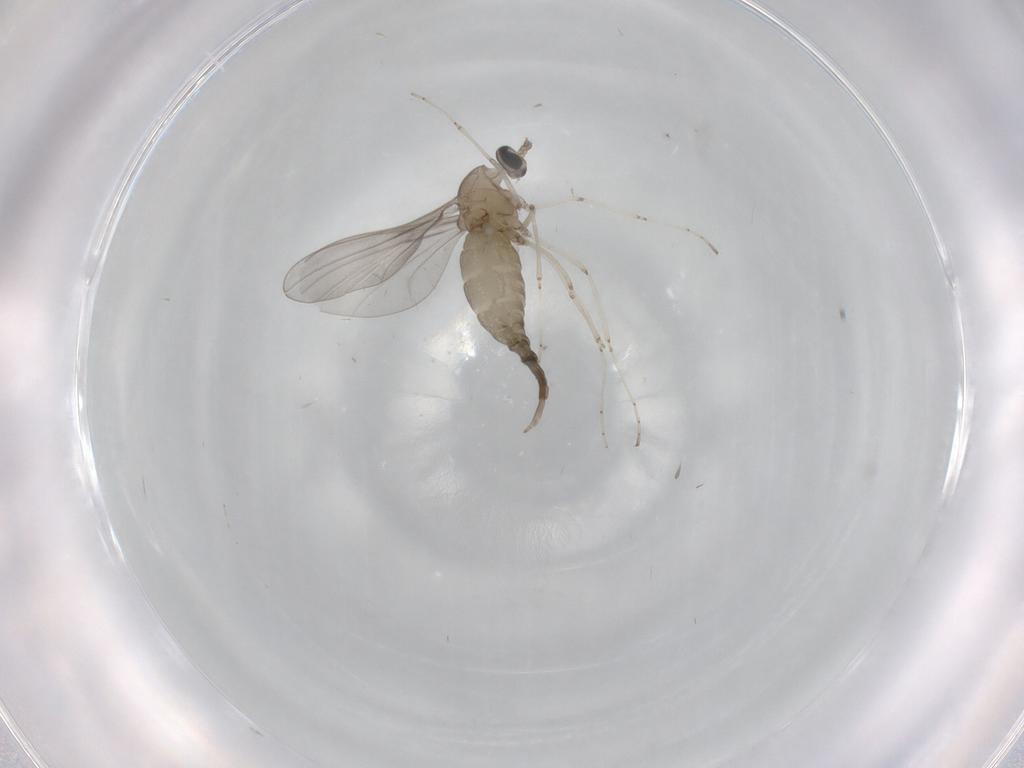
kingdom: Animalia
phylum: Arthropoda
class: Insecta
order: Diptera
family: Cecidomyiidae
